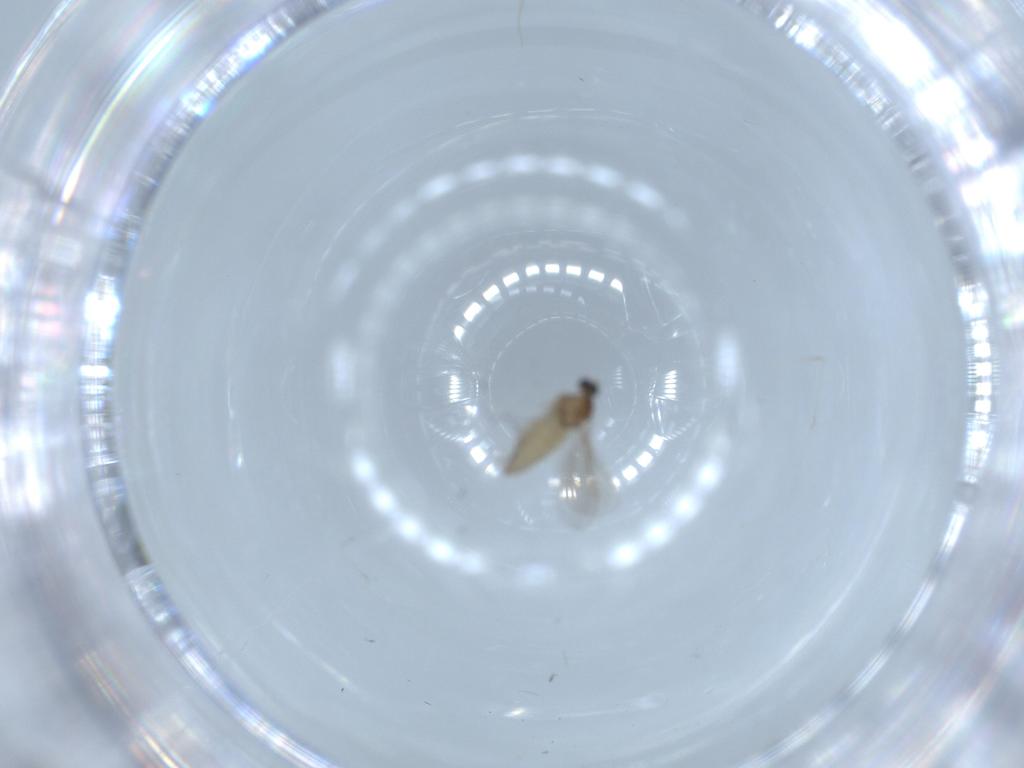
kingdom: Animalia
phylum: Arthropoda
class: Insecta
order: Diptera
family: Cecidomyiidae
